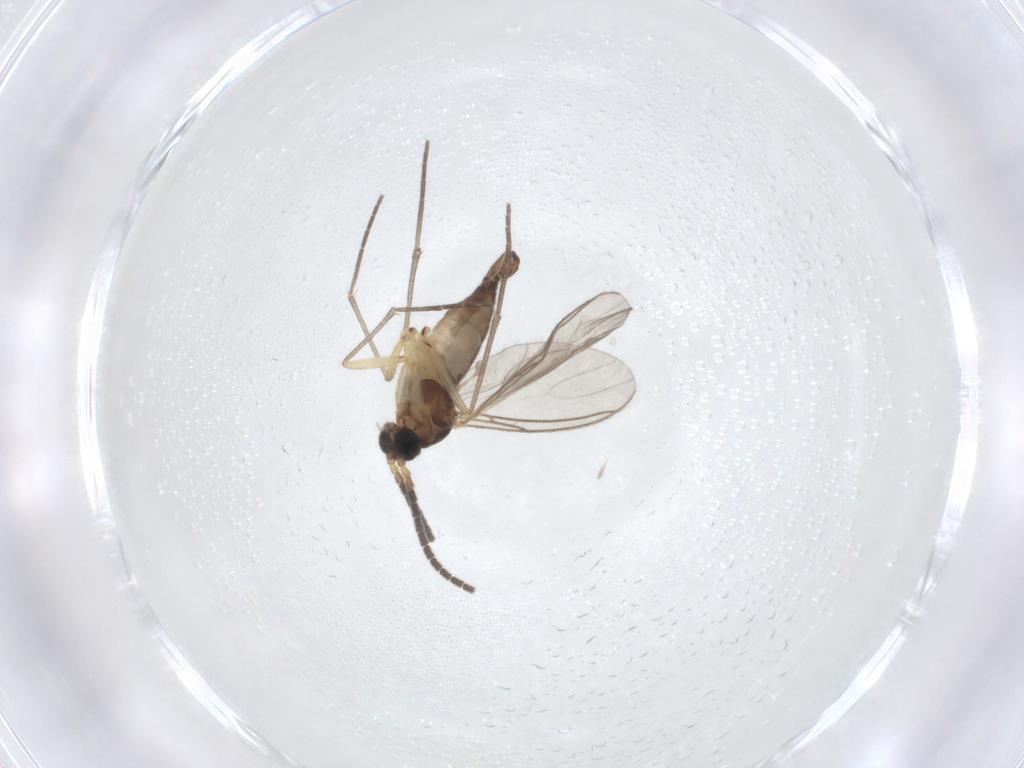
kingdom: Animalia
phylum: Arthropoda
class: Insecta
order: Diptera
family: Sciaridae
